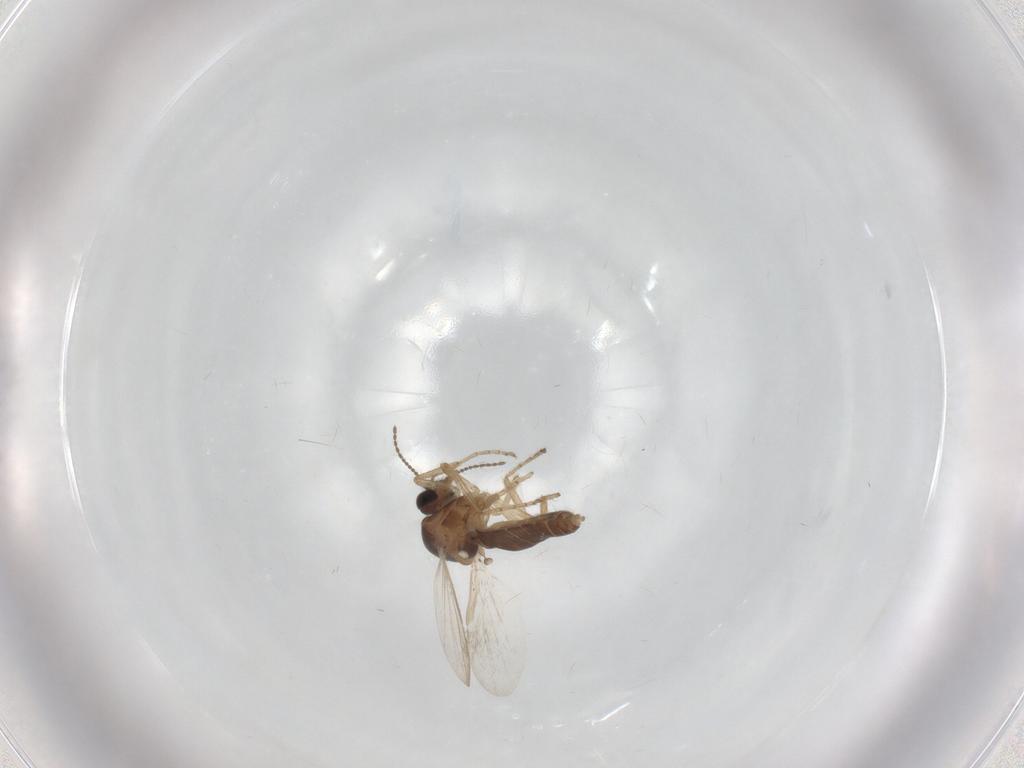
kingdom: Animalia
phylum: Arthropoda
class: Insecta
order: Diptera
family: Ceratopogonidae
